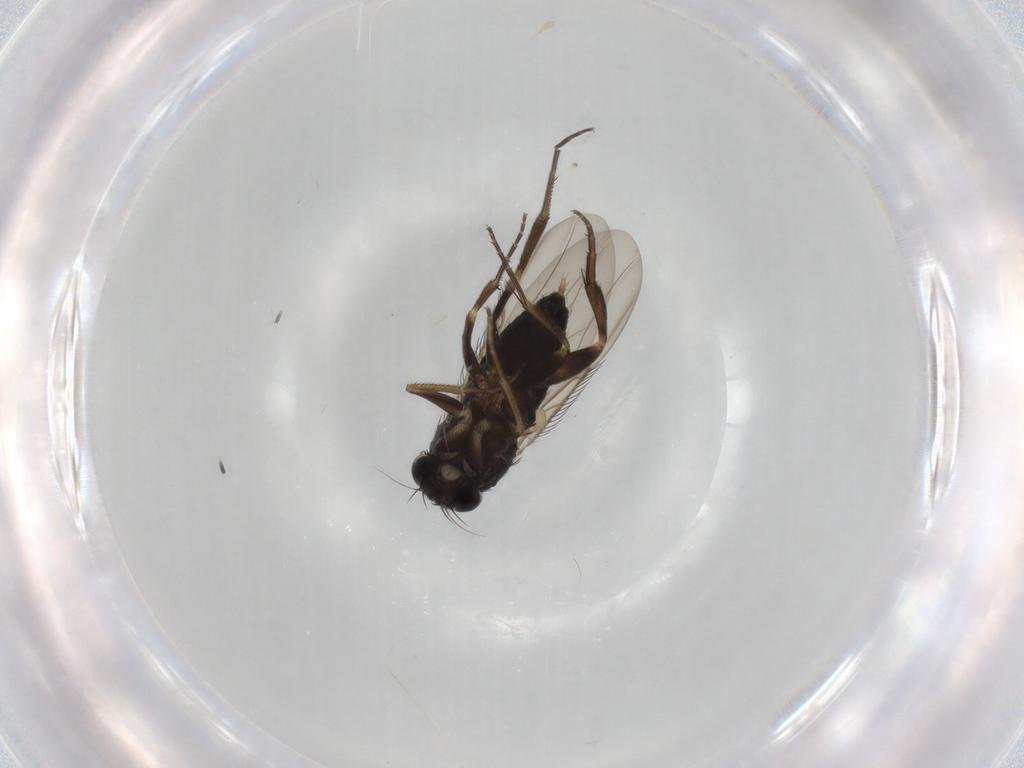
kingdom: Animalia
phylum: Arthropoda
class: Insecta
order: Diptera
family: Phoridae
